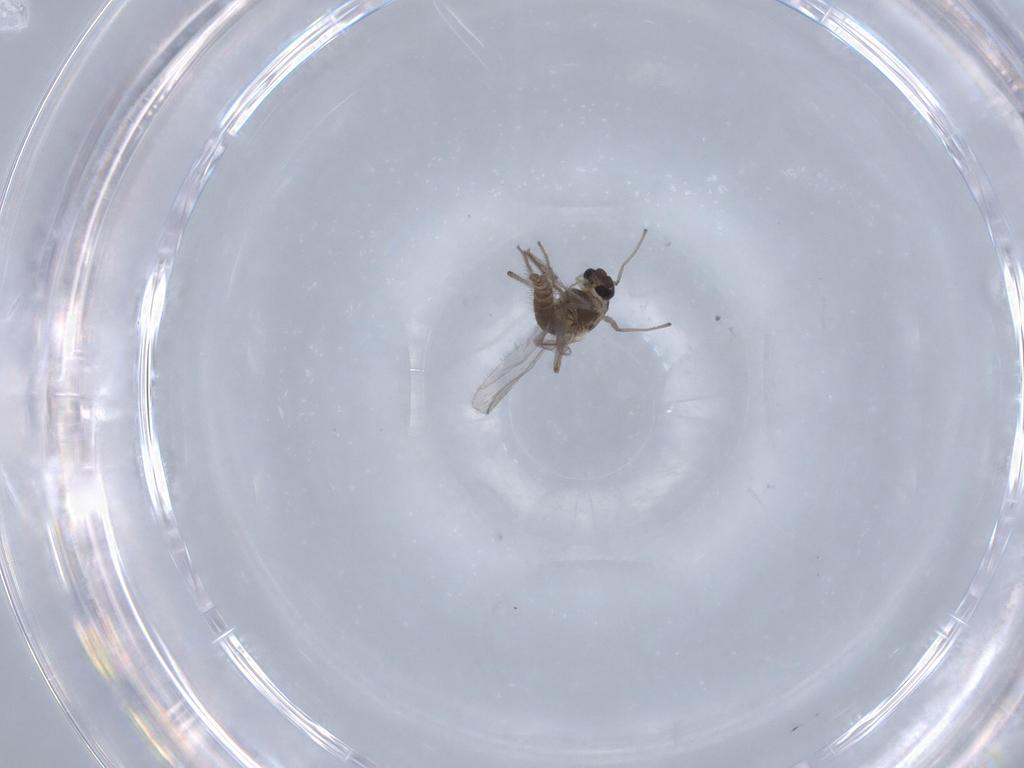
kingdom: Animalia
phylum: Arthropoda
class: Insecta
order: Diptera
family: Chironomidae
